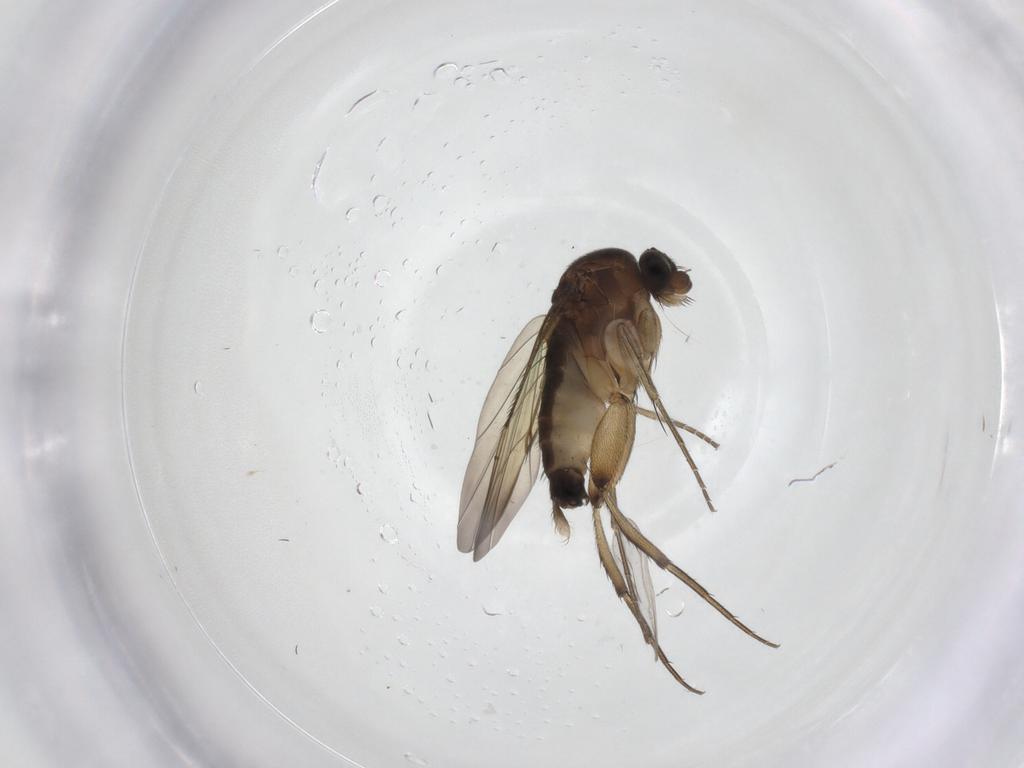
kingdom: Animalia
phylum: Arthropoda
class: Insecta
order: Diptera
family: Phoridae
